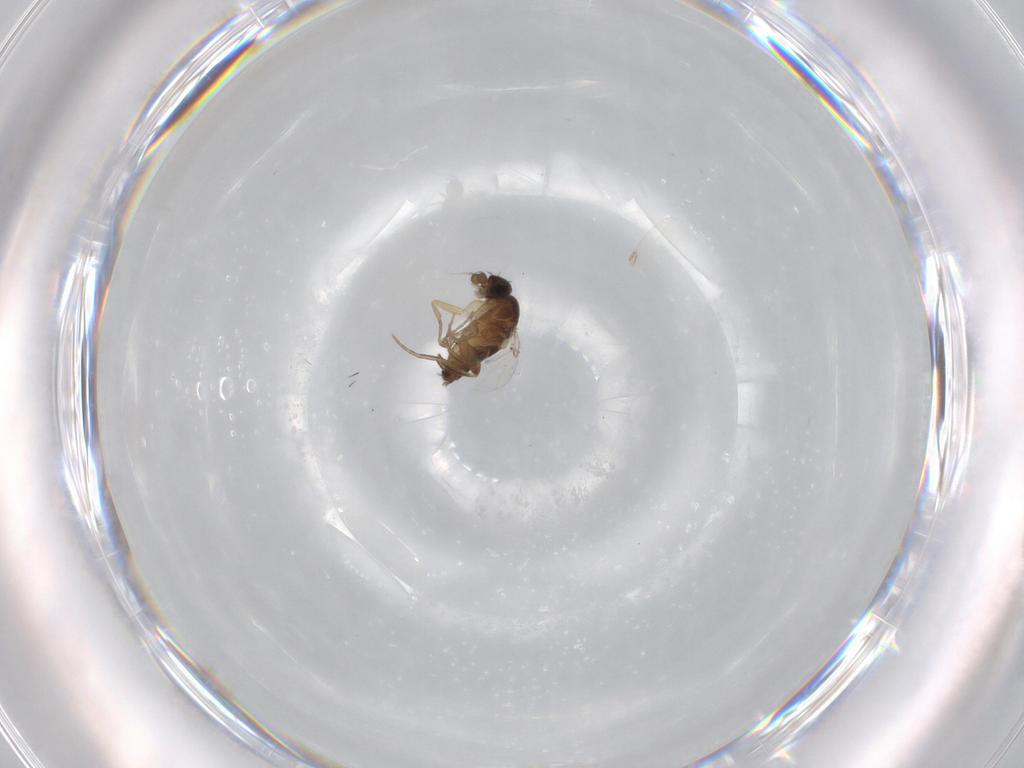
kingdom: Animalia
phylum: Arthropoda
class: Insecta
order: Diptera
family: Phoridae
